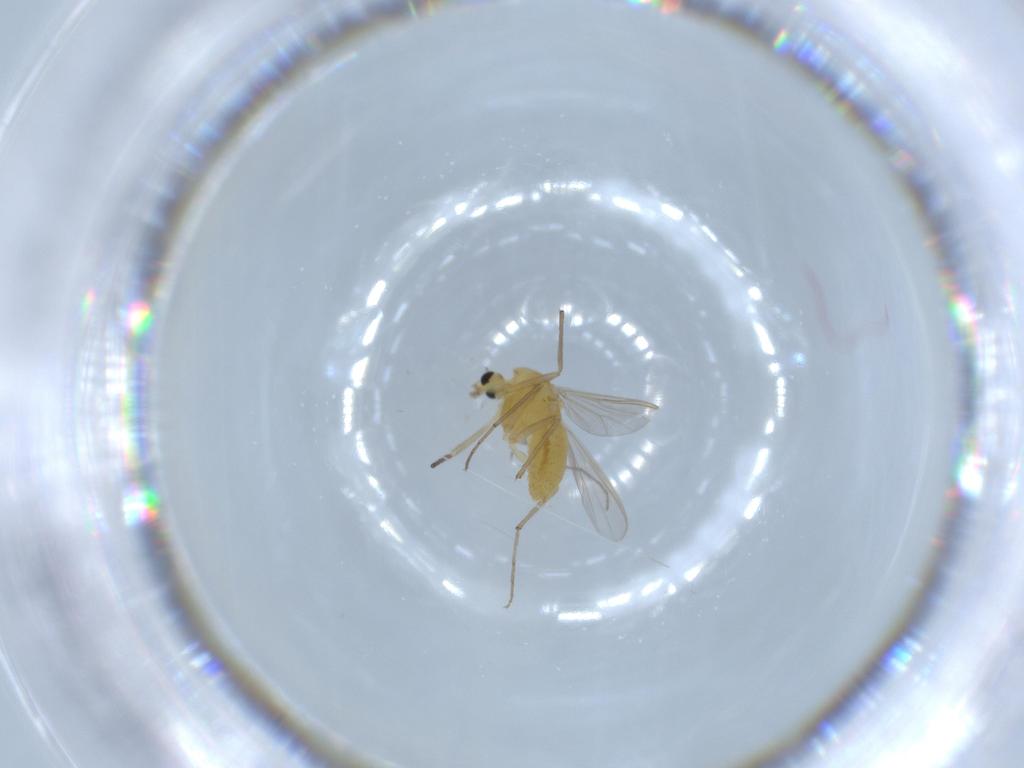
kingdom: Animalia
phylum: Arthropoda
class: Insecta
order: Diptera
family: Chironomidae
